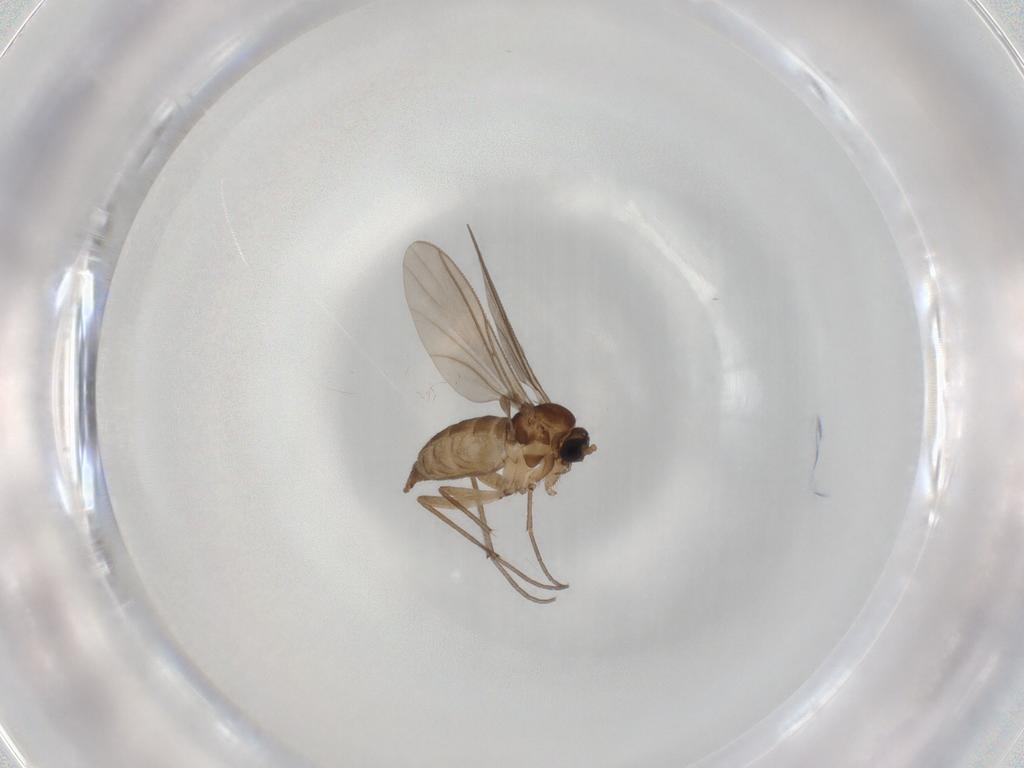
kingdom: Animalia
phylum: Arthropoda
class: Insecta
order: Diptera
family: Sciaridae
